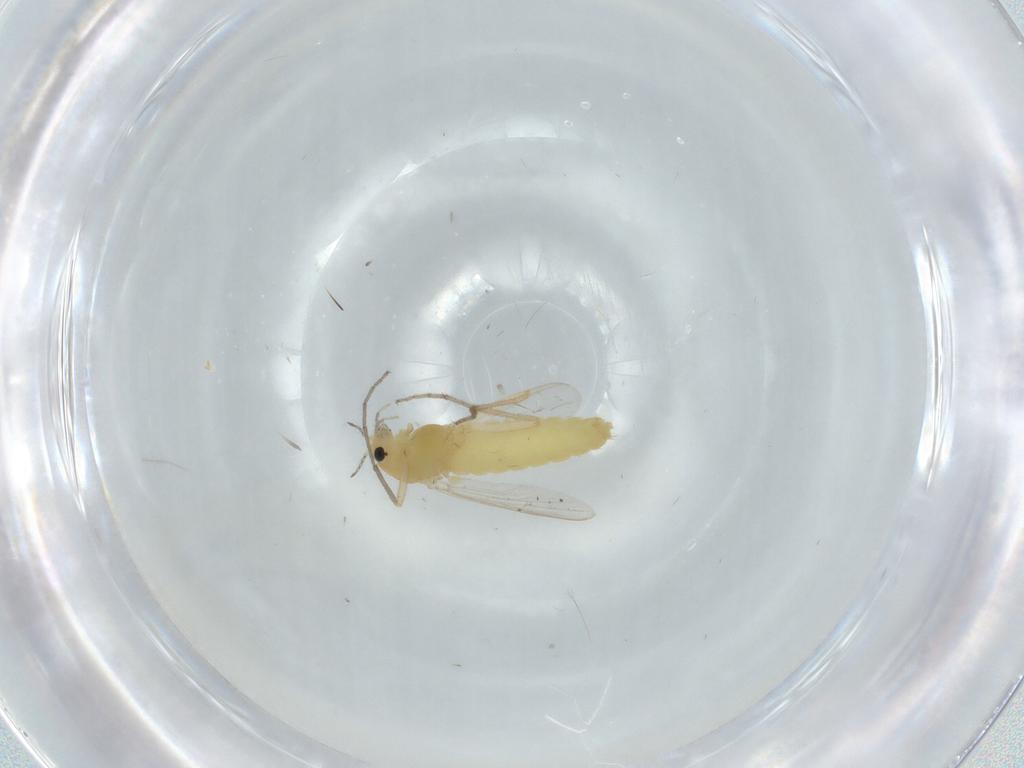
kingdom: Animalia
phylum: Arthropoda
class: Insecta
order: Diptera
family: Chironomidae
